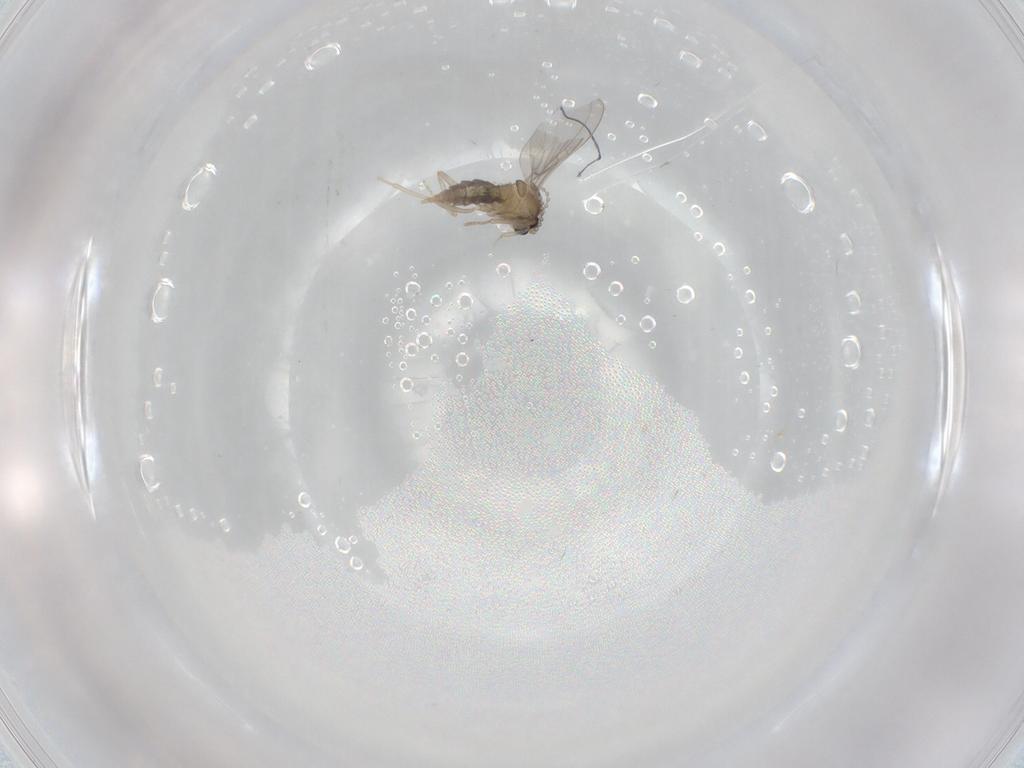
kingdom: Animalia
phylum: Arthropoda
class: Insecta
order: Diptera
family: Cecidomyiidae
